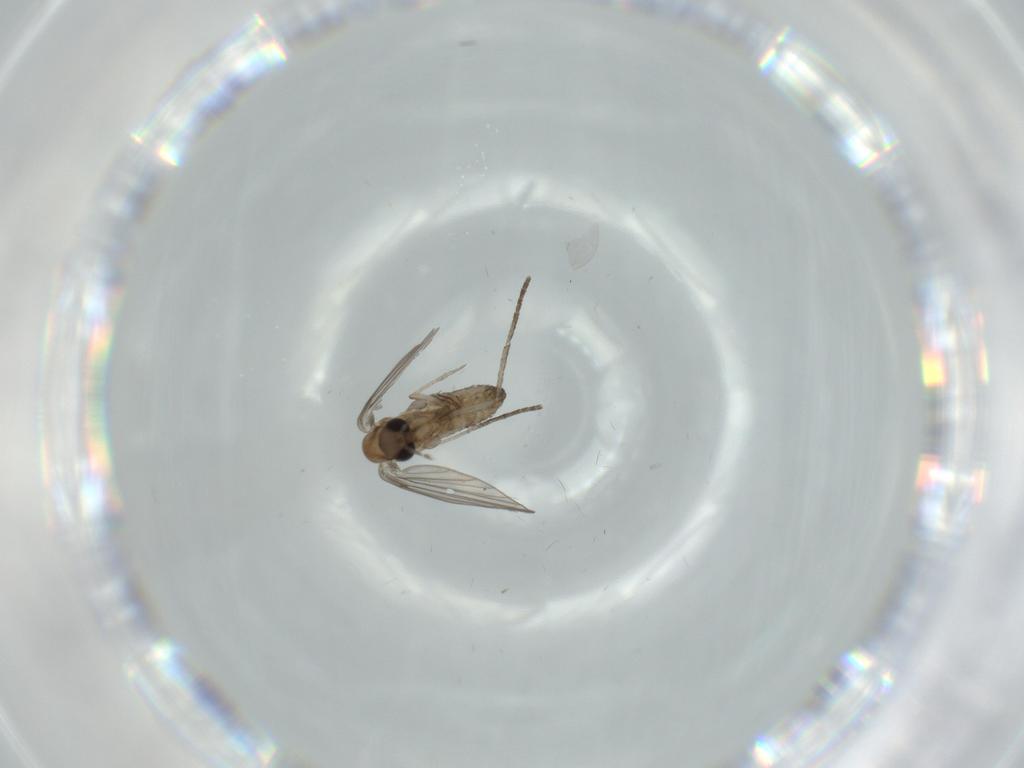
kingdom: Animalia
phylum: Arthropoda
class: Insecta
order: Diptera
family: Psychodidae
